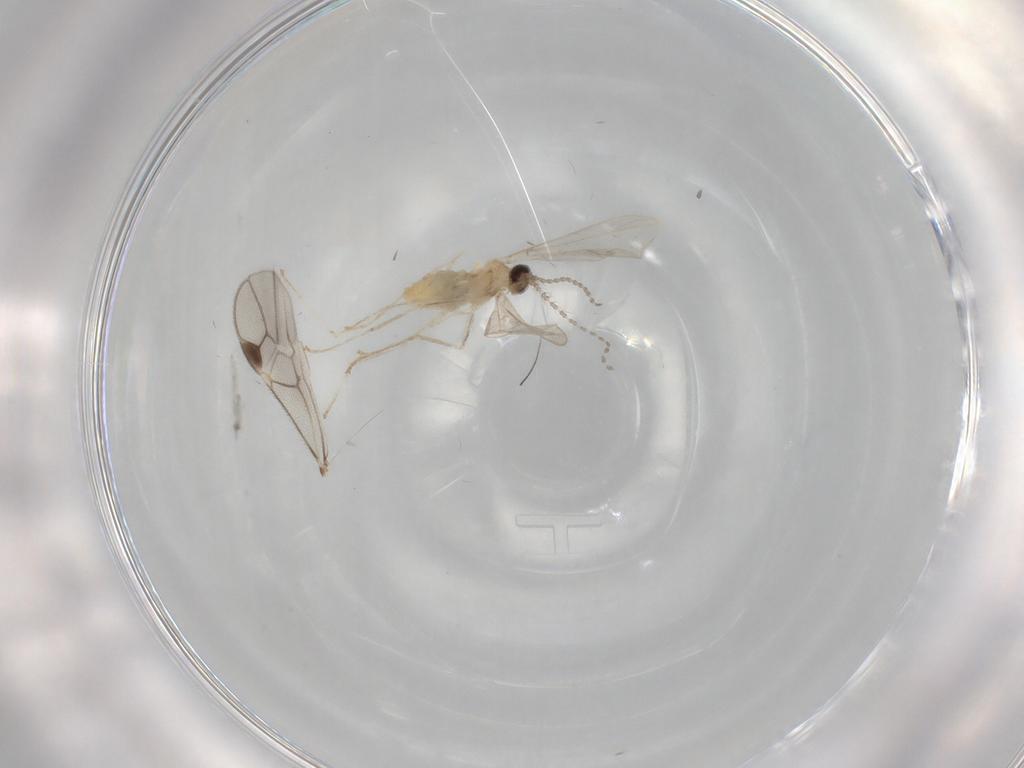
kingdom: Animalia
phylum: Arthropoda
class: Insecta
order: Diptera
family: Cecidomyiidae
